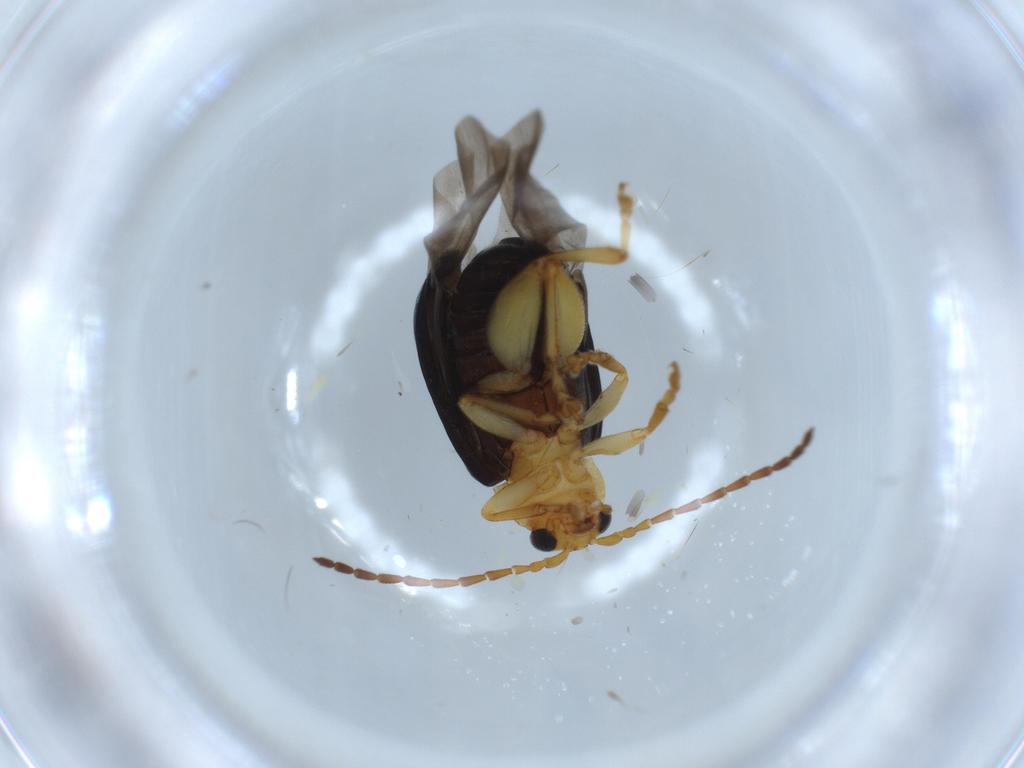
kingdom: Animalia
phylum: Arthropoda
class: Insecta
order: Coleoptera
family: Chrysomelidae
